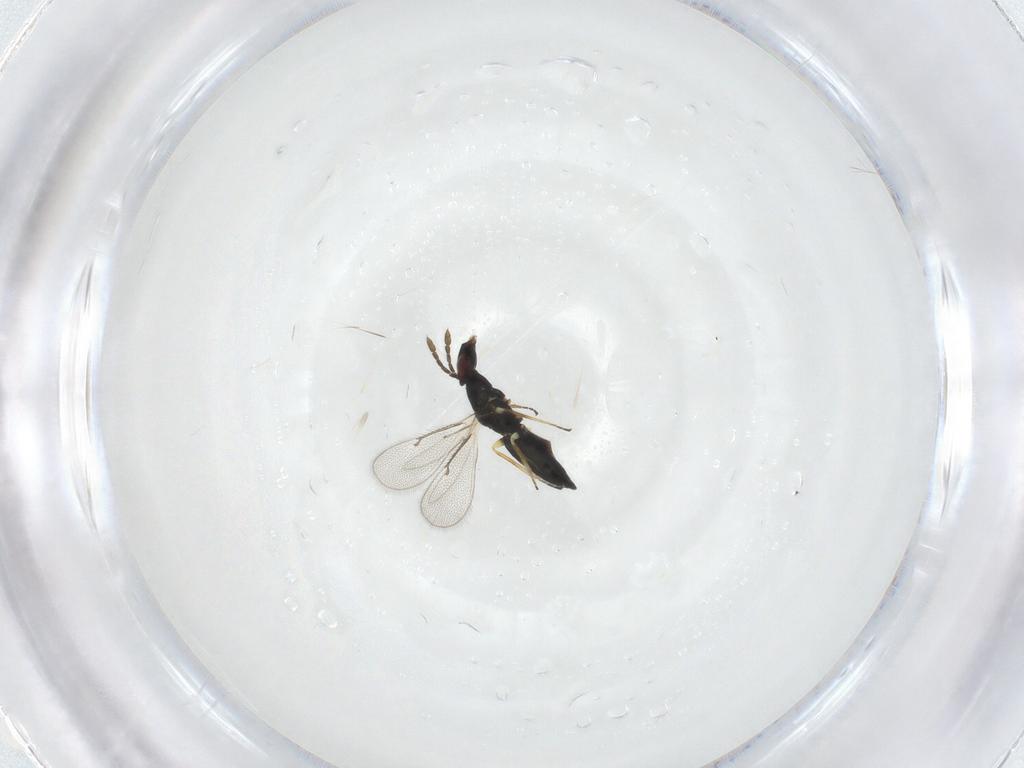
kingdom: Animalia
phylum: Arthropoda
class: Insecta
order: Hymenoptera
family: Eulophidae
